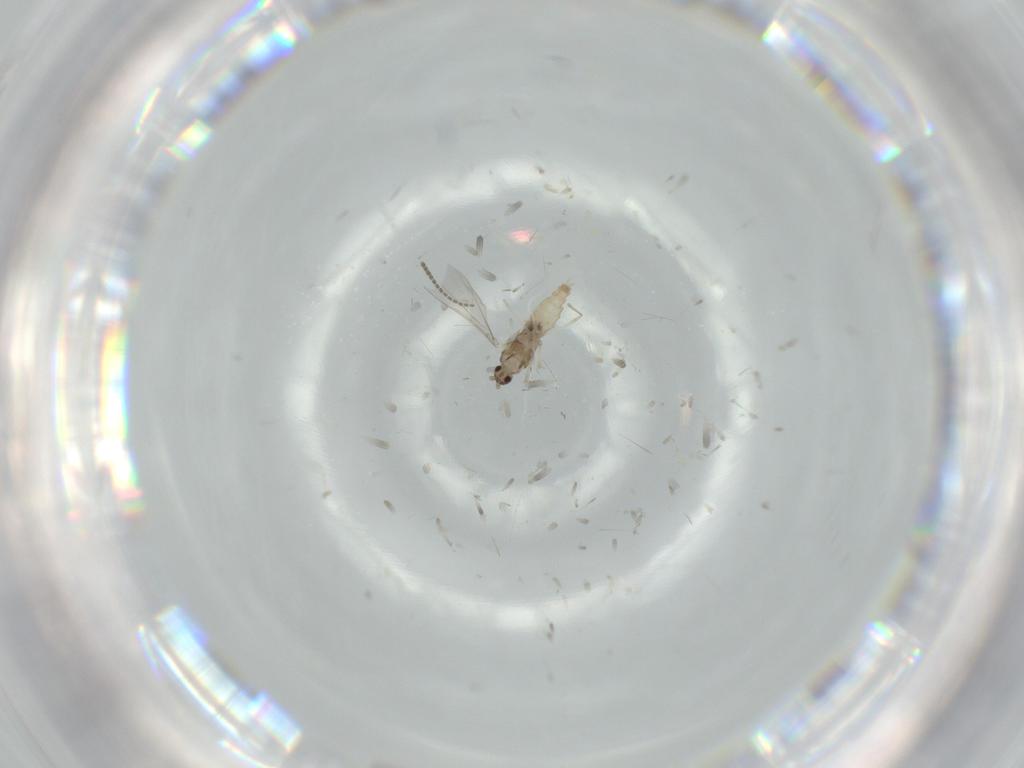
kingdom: Animalia
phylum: Arthropoda
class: Insecta
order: Diptera
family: Cecidomyiidae
